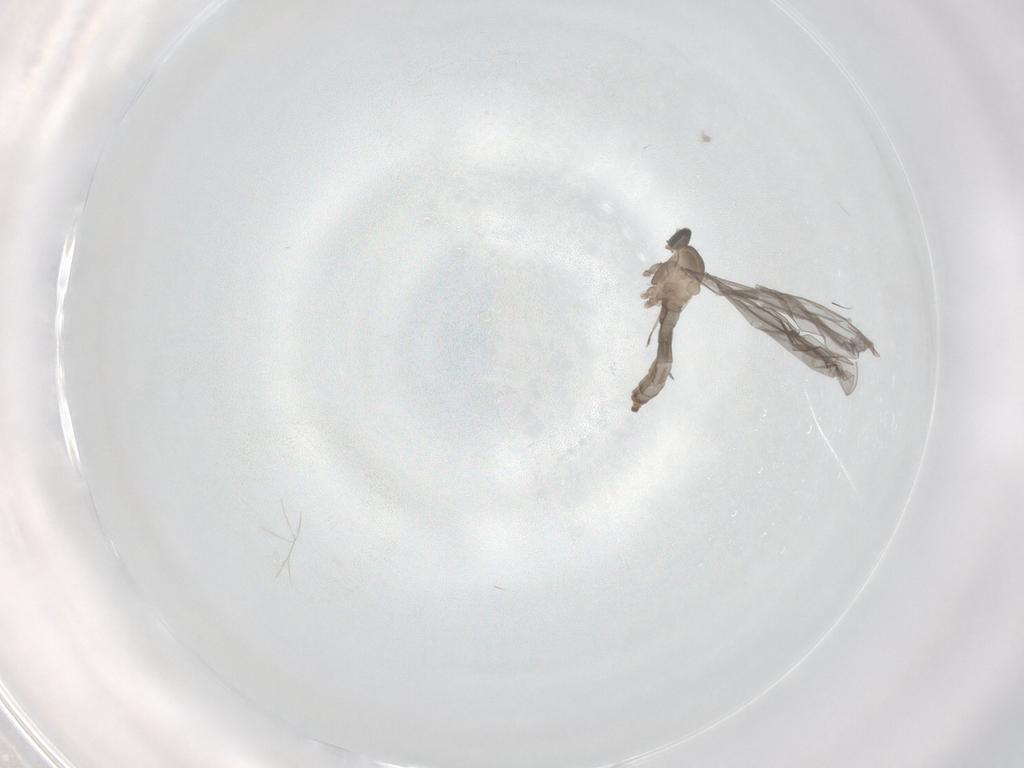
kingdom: Animalia
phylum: Arthropoda
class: Insecta
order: Diptera
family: Cecidomyiidae
